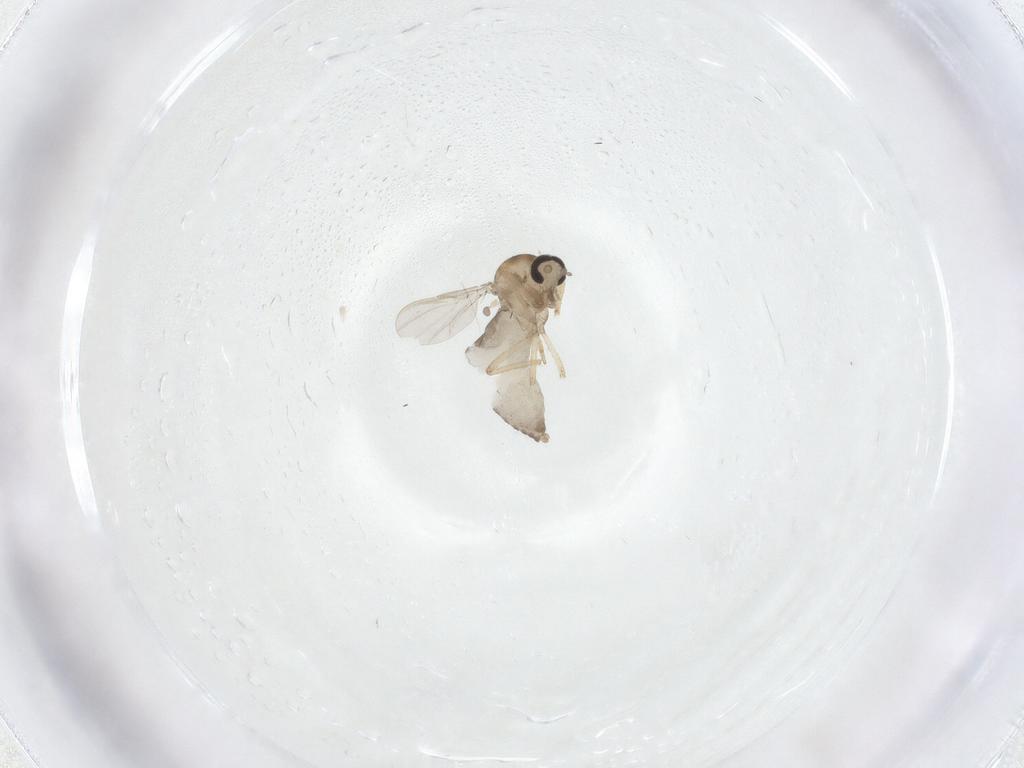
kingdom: Animalia
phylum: Arthropoda
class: Insecta
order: Diptera
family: Ceratopogonidae
